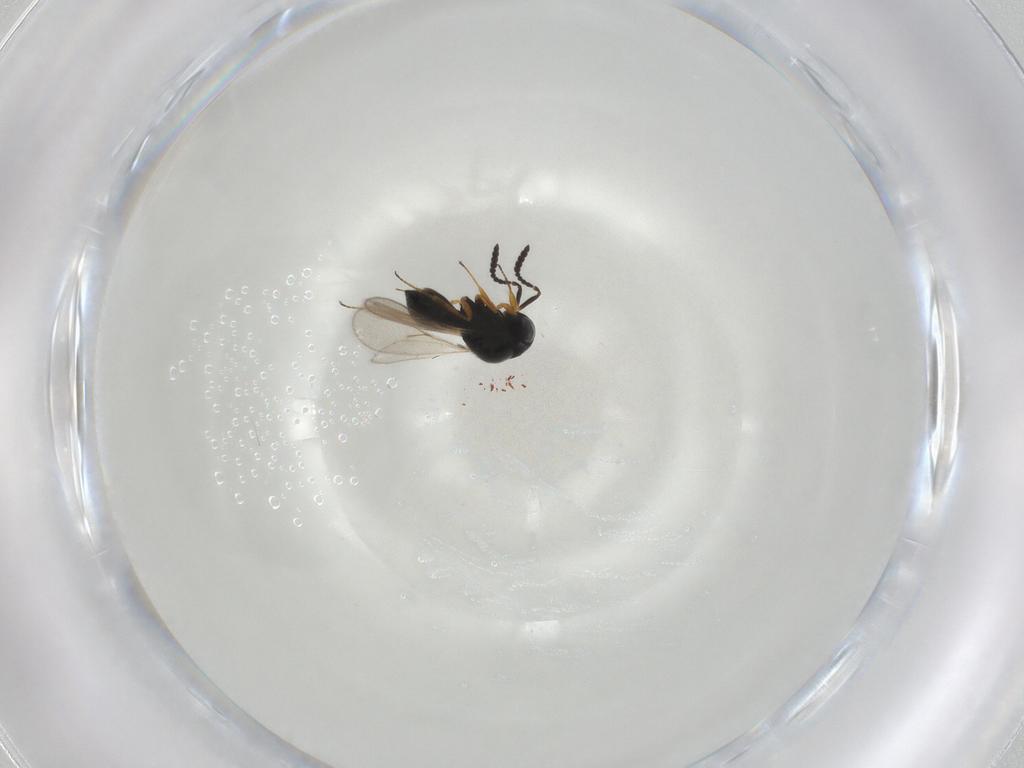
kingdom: Animalia
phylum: Arthropoda
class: Insecta
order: Hymenoptera
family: Scelionidae
